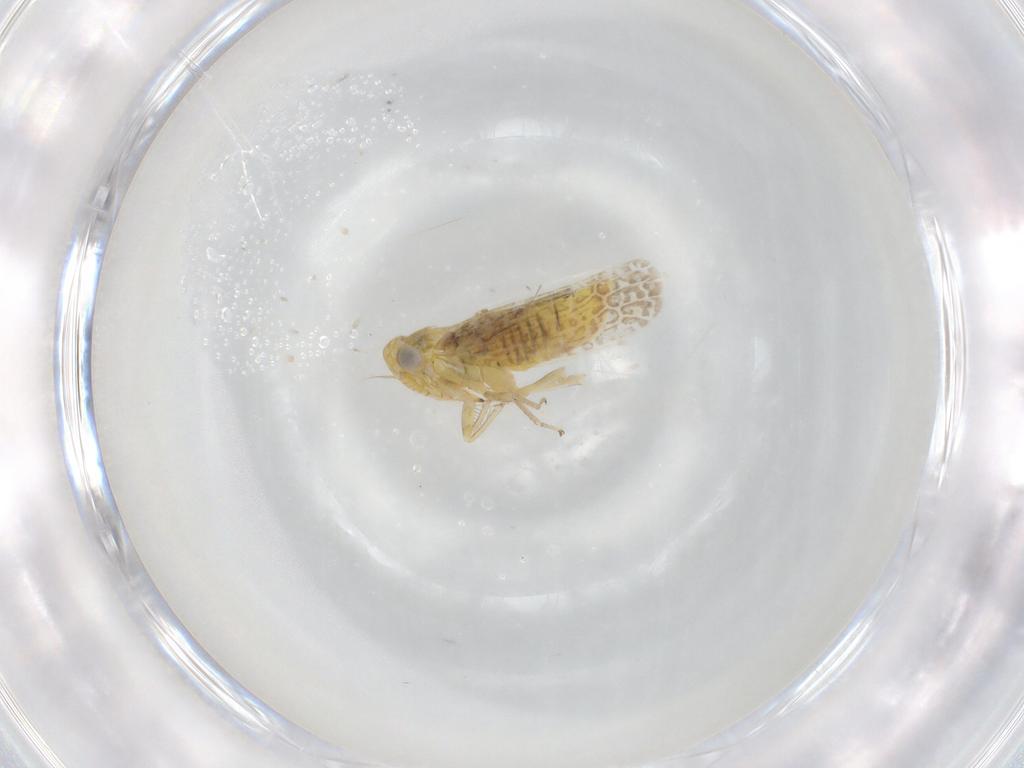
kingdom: Animalia
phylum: Arthropoda
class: Insecta
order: Hemiptera
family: Cicadellidae
